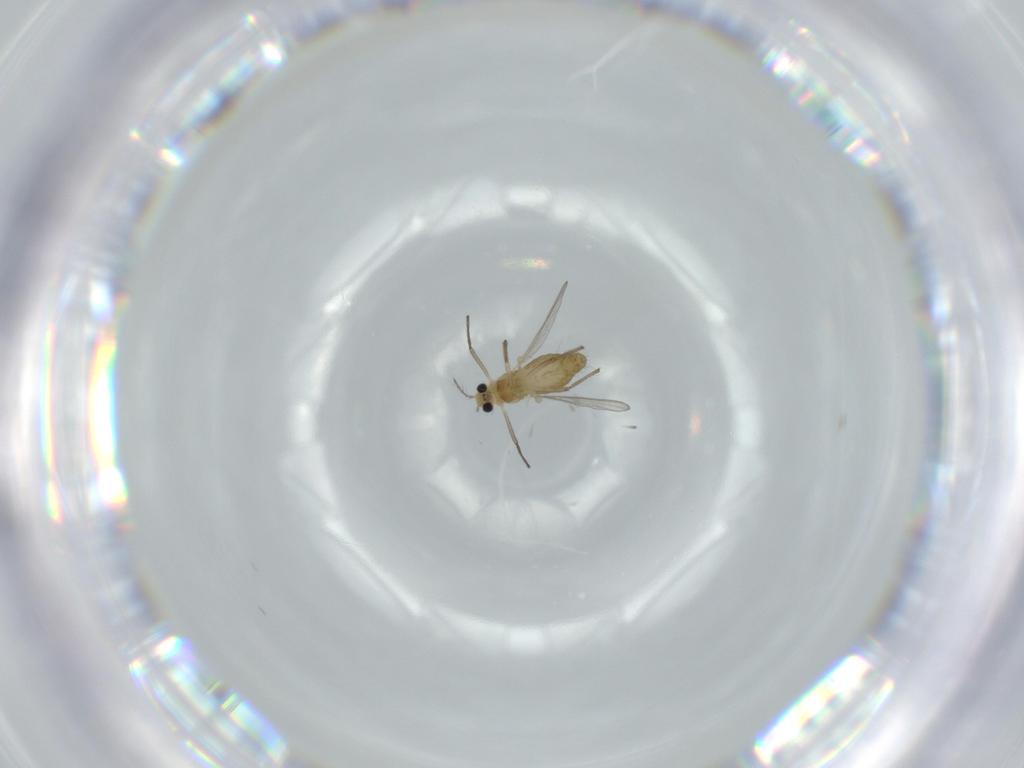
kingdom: Animalia
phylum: Arthropoda
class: Insecta
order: Diptera
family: Chironomidae
